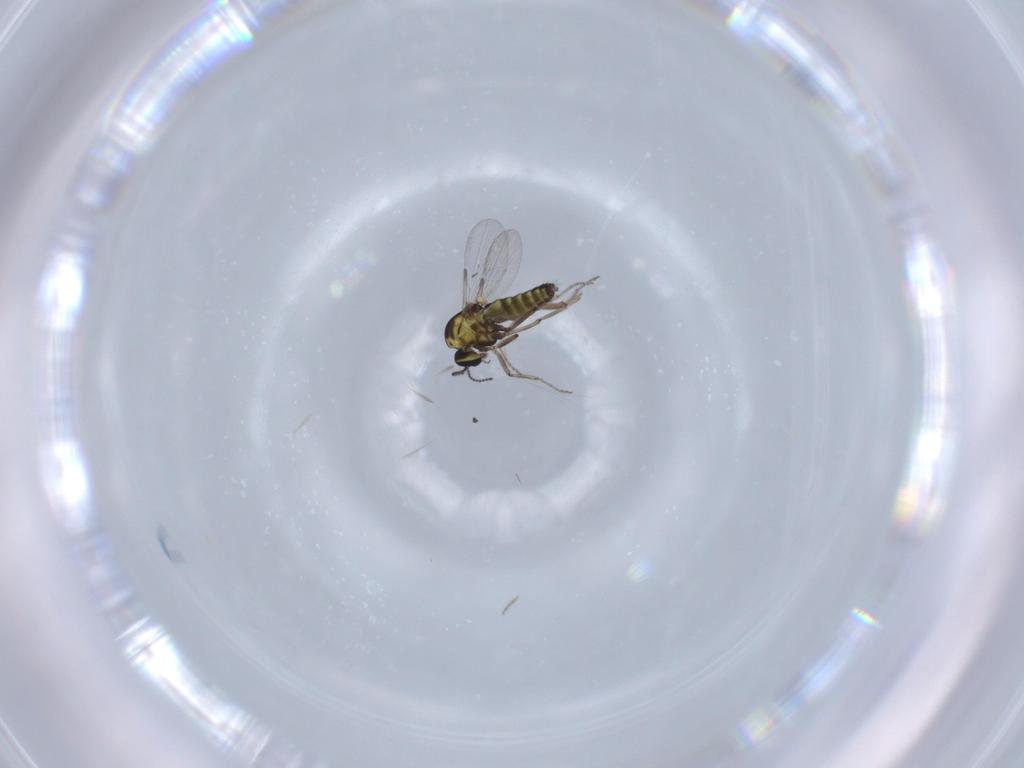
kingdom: Animalia
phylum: Arthropoda
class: Insecta
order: Diptera
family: Ceratopogonidae
